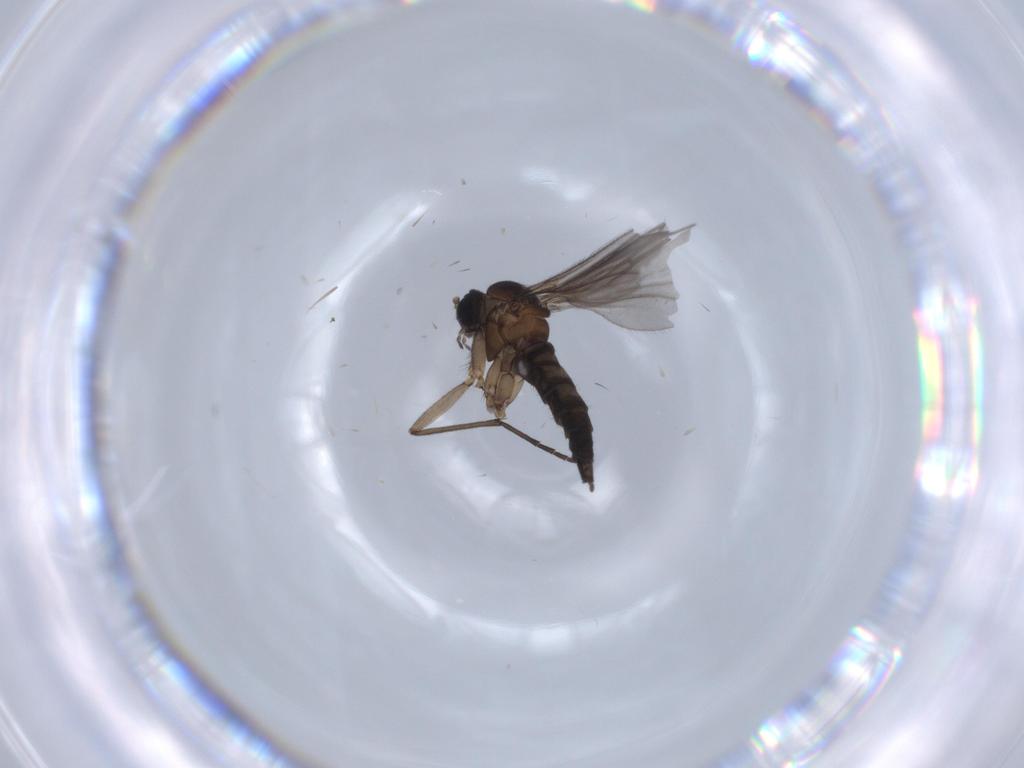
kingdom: Animalia
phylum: Arthropoda
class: Insecta
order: Diptera
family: Sciaridae
